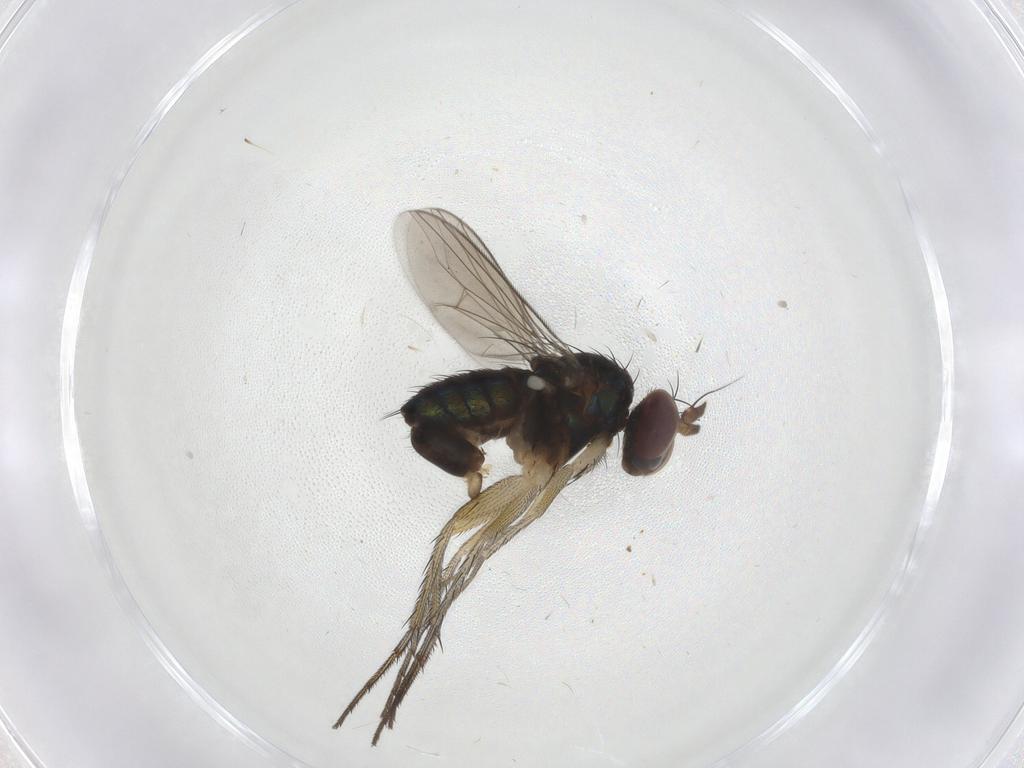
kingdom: Animalia
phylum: Arthropoda
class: Insecta
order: Diptera
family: Dolichopodidae
